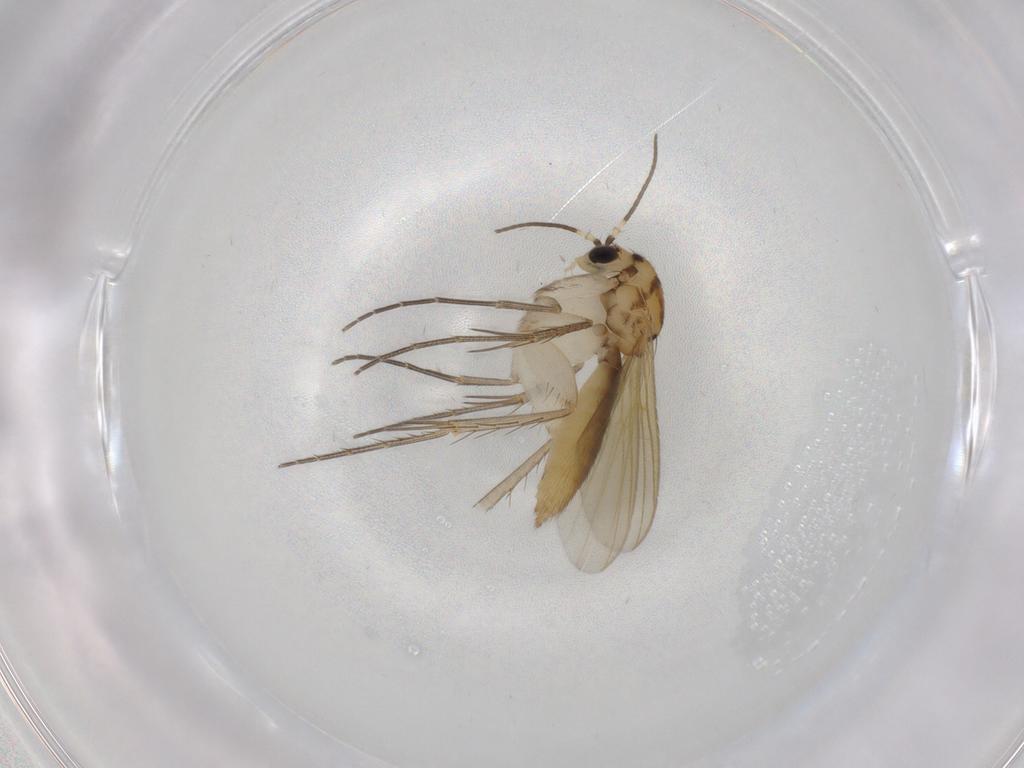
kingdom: Animalia
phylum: Arthropoda
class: Insecta
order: Diptera
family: Mycetophilidae
